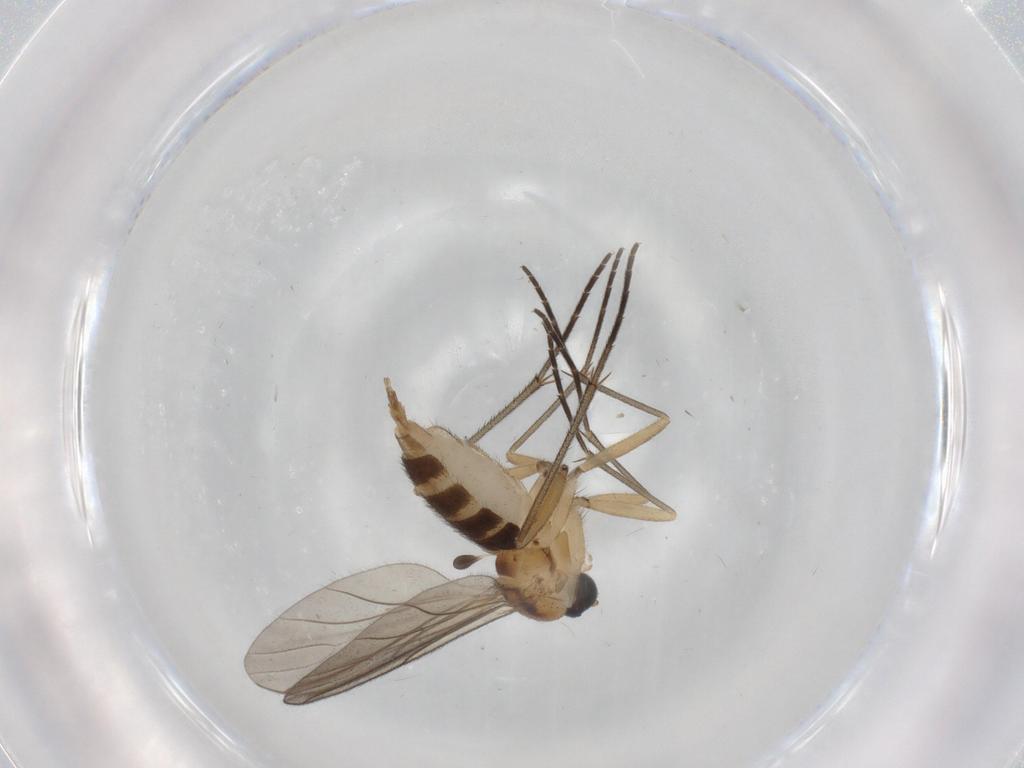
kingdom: Animalia
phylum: Arthropoda
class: Insecta
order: Diptera
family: Sciaridae
